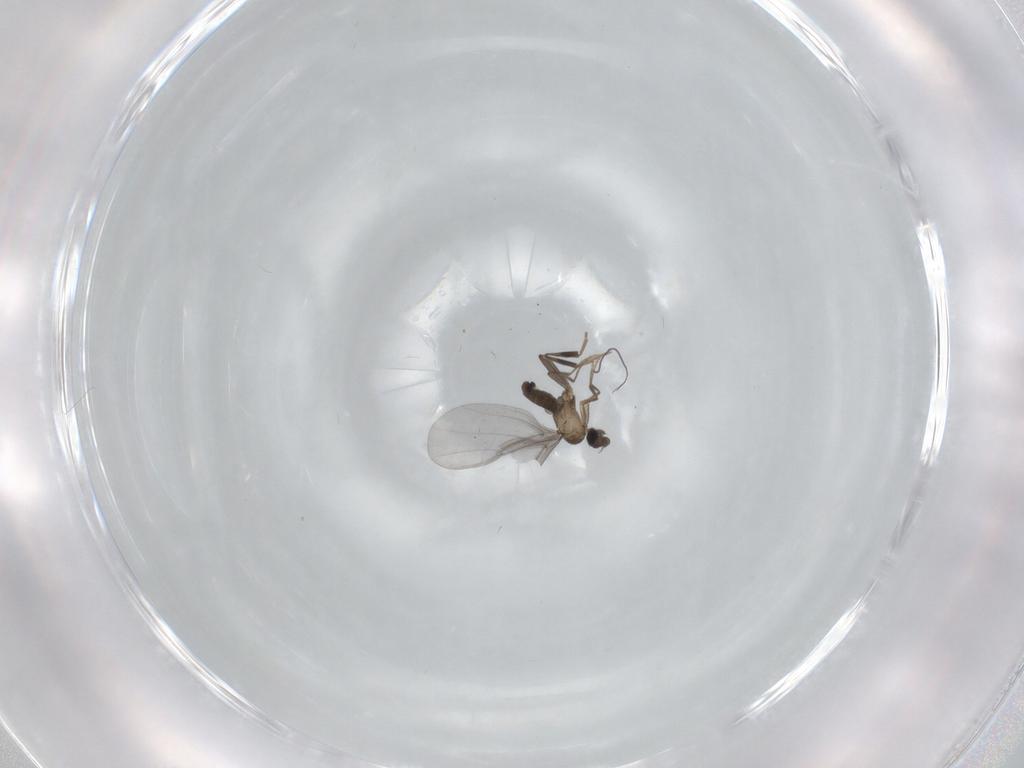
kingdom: Animalia
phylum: Arthropoda
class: Insecta
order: Diptera
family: Phoridae
